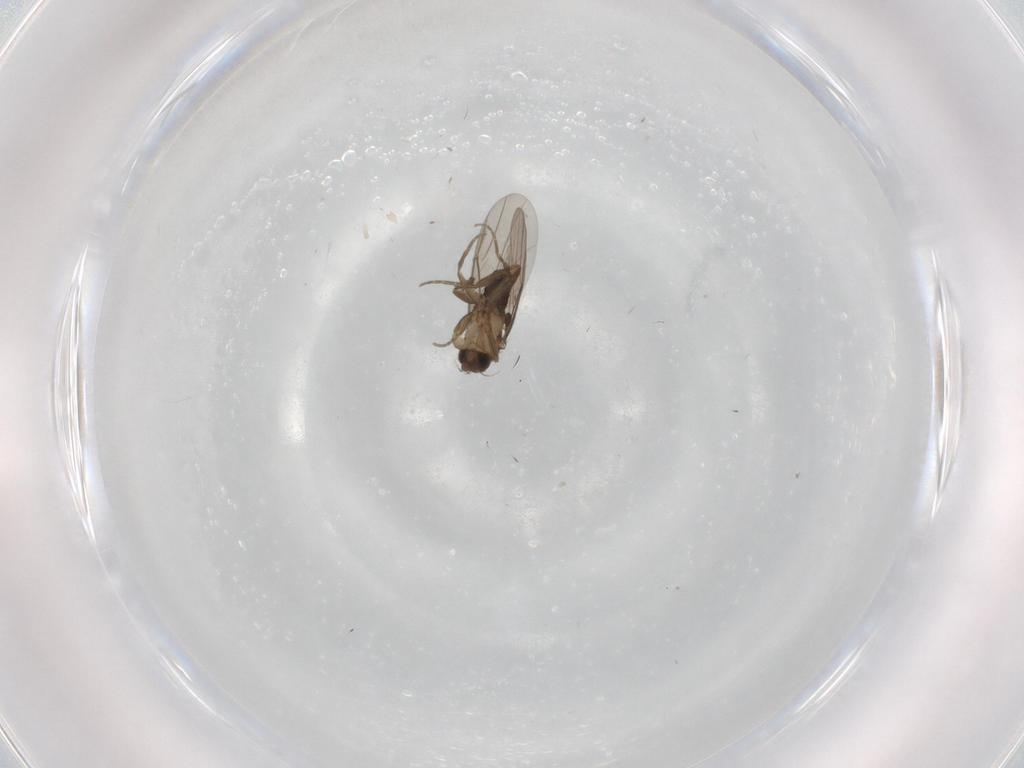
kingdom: Animalia
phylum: Arthropoda
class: Insecta
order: Diptera
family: Phoridae
